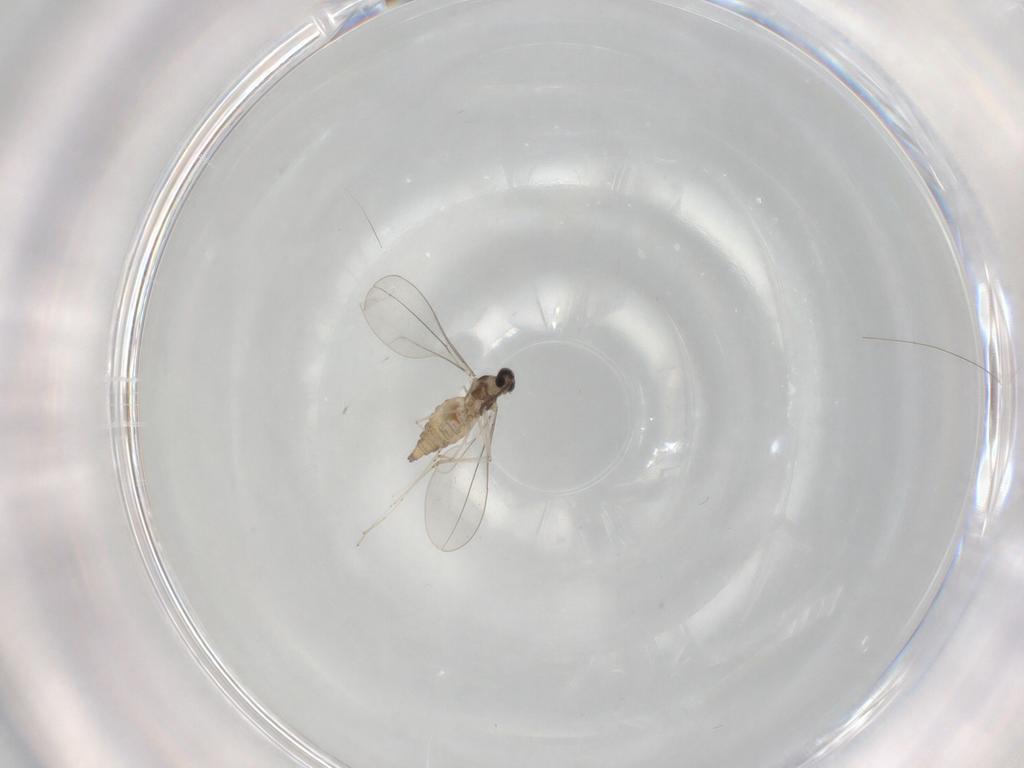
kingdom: Animalia
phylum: Arthropoda
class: Insecta
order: Diptera
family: Cecidomyiidae
